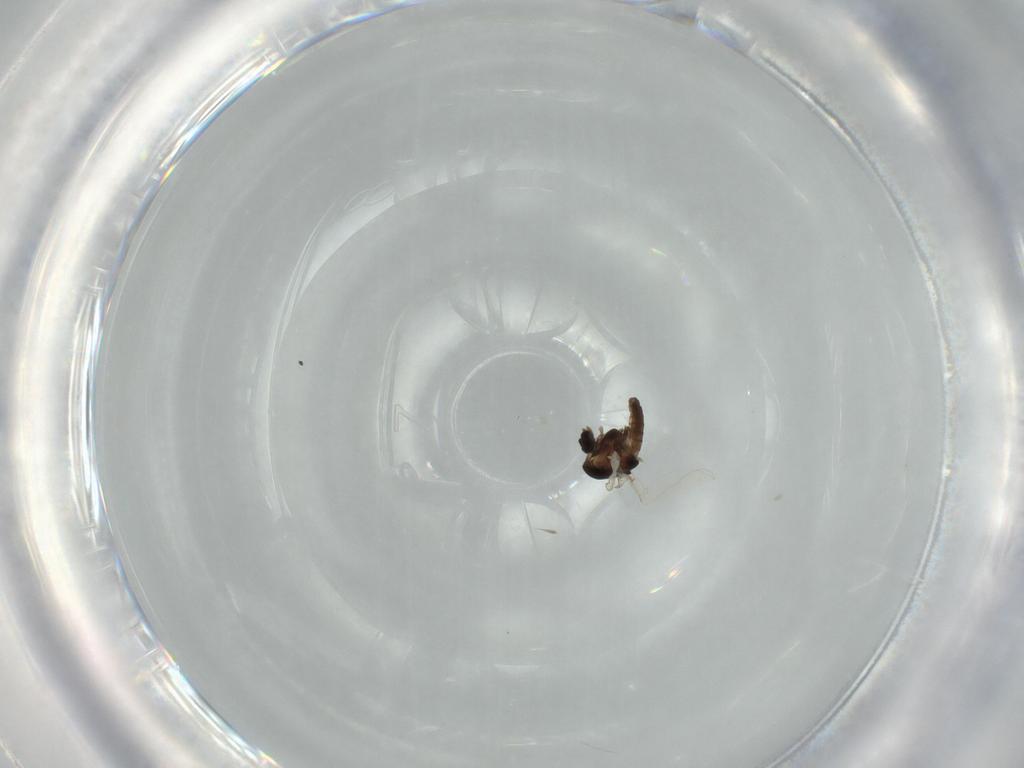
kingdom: Animalia
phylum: Arthropoda
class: Insecta
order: Diptera
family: Chironomidae
